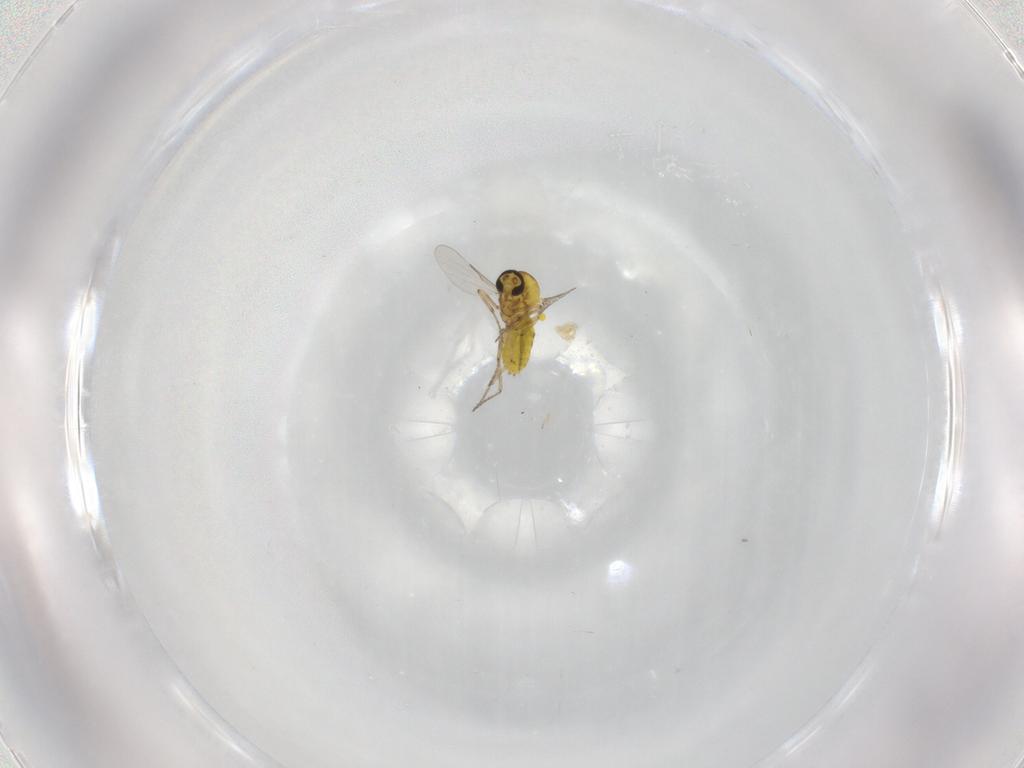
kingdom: Animalia
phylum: Arthropoda
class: Insecta
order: Diptera
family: Ceratopogonidae
